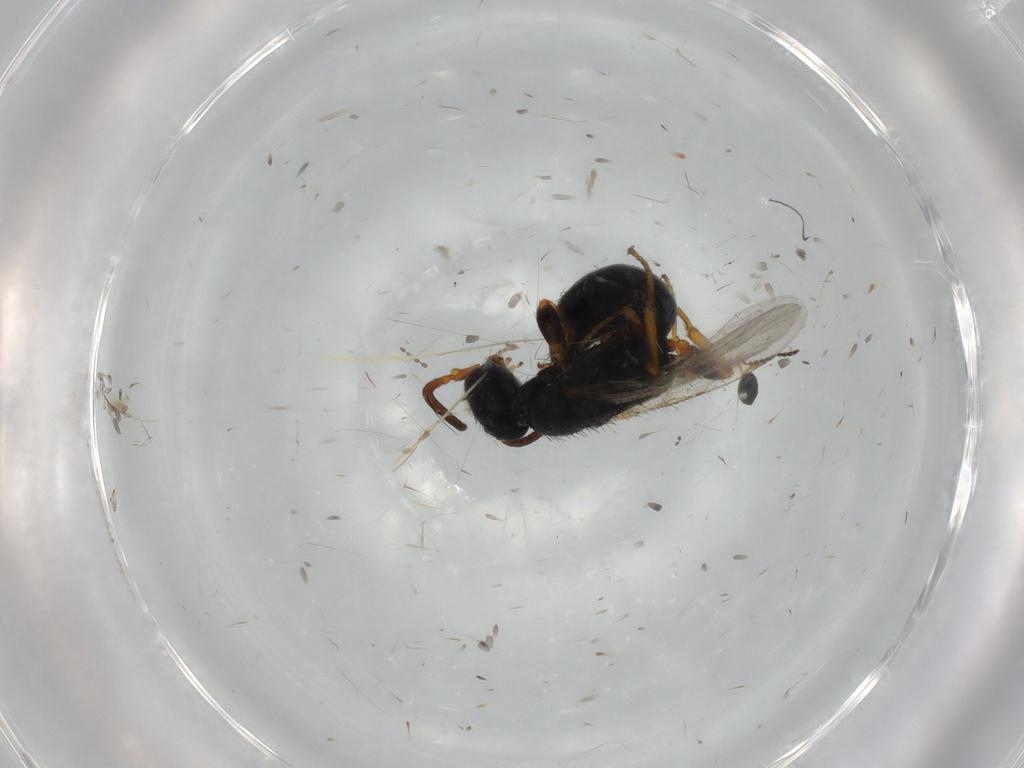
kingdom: Animalia
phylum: Arthropoda
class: Insecta
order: Hymenoptera
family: Bethylidae
